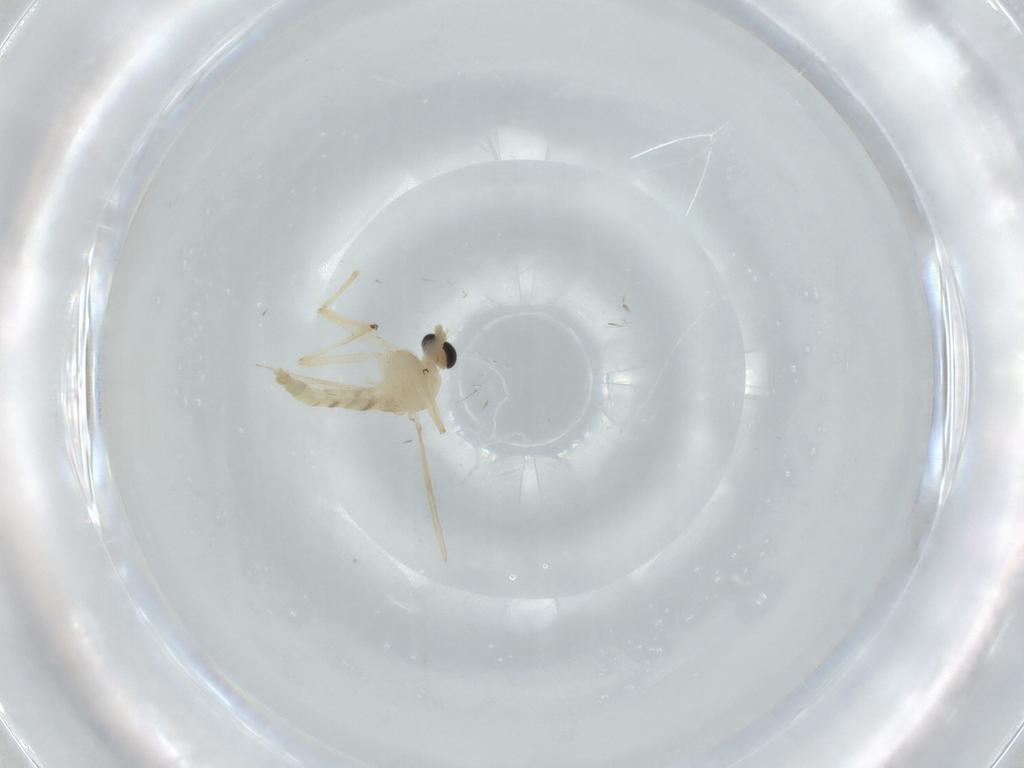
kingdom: Animalia
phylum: Arthropoda
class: Insecta
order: Diptera
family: Chironomidae
